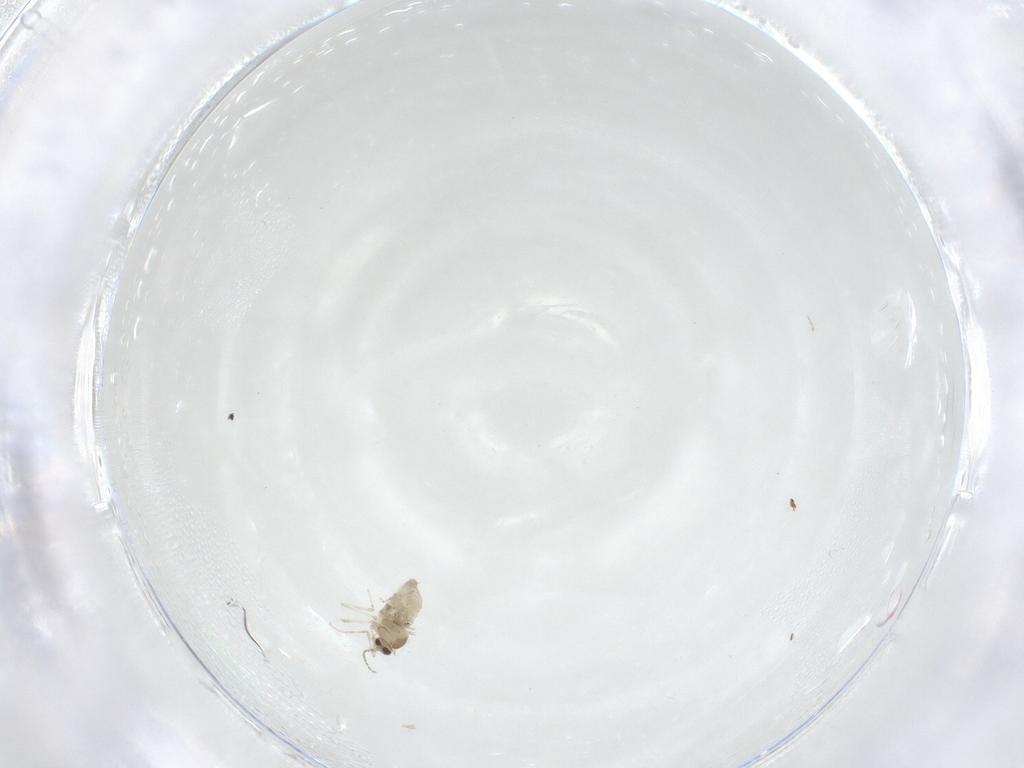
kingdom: Animalia
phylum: Arthropoda
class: Insecta
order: Diptera
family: Cecidomyiidae
